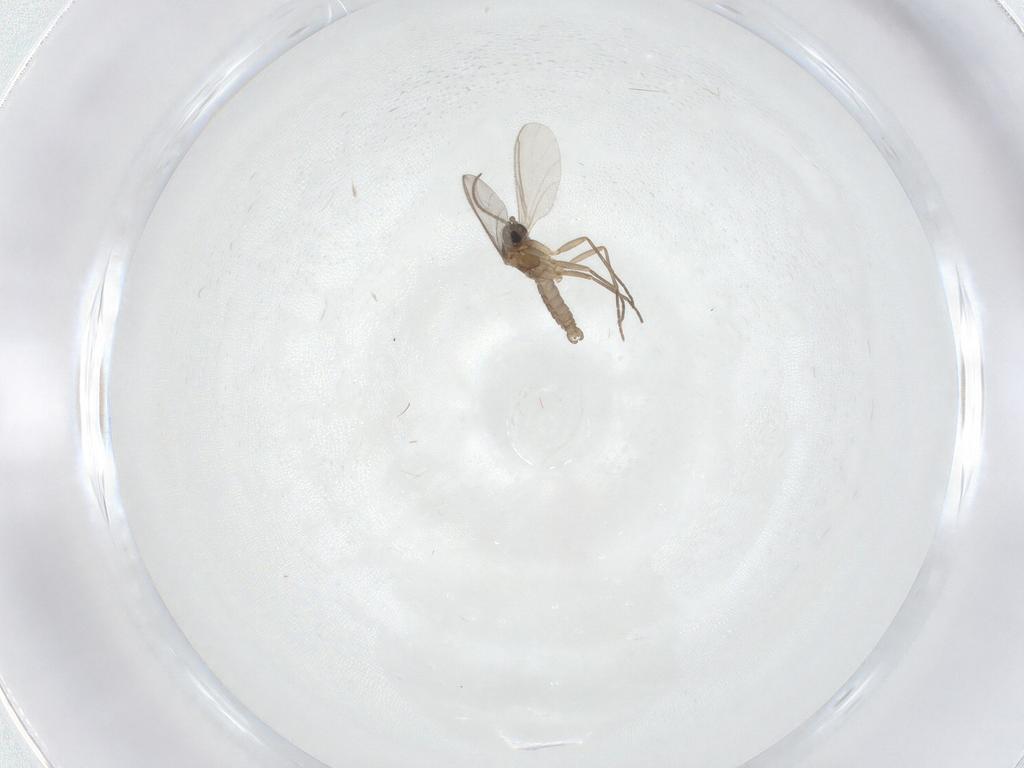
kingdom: Animalia
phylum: Arthropoda
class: Insecta
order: Diptera
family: Sciaridae
